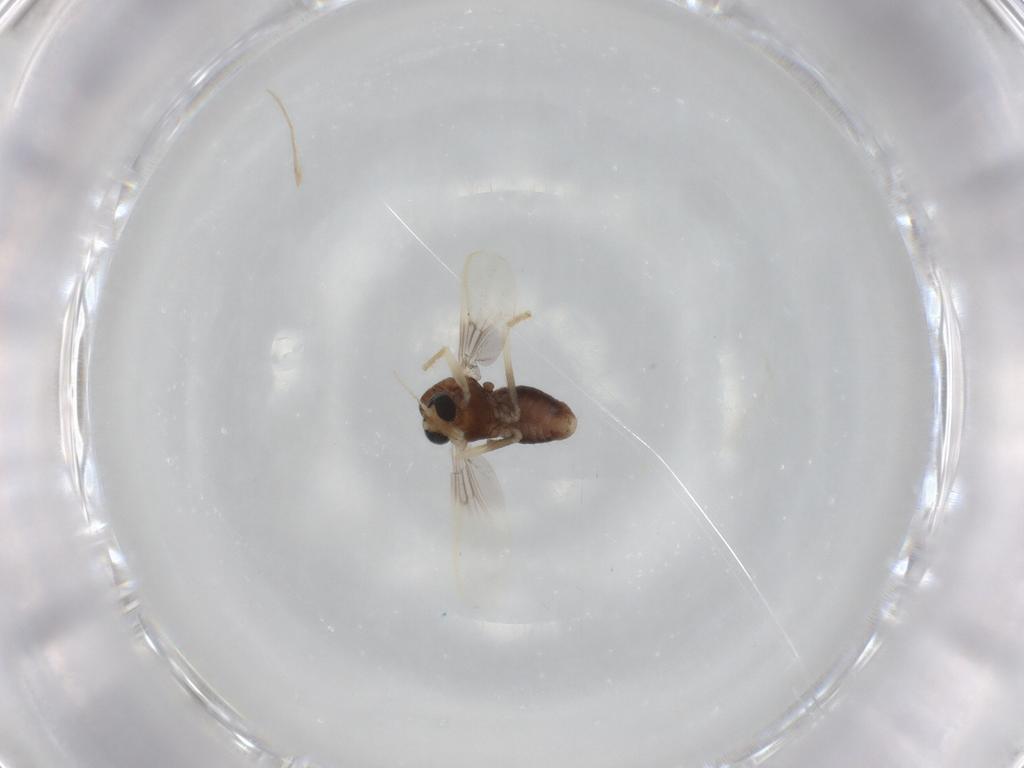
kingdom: Animalia
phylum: Arthropoda
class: Insecta
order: Diptera
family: Chironomidae
